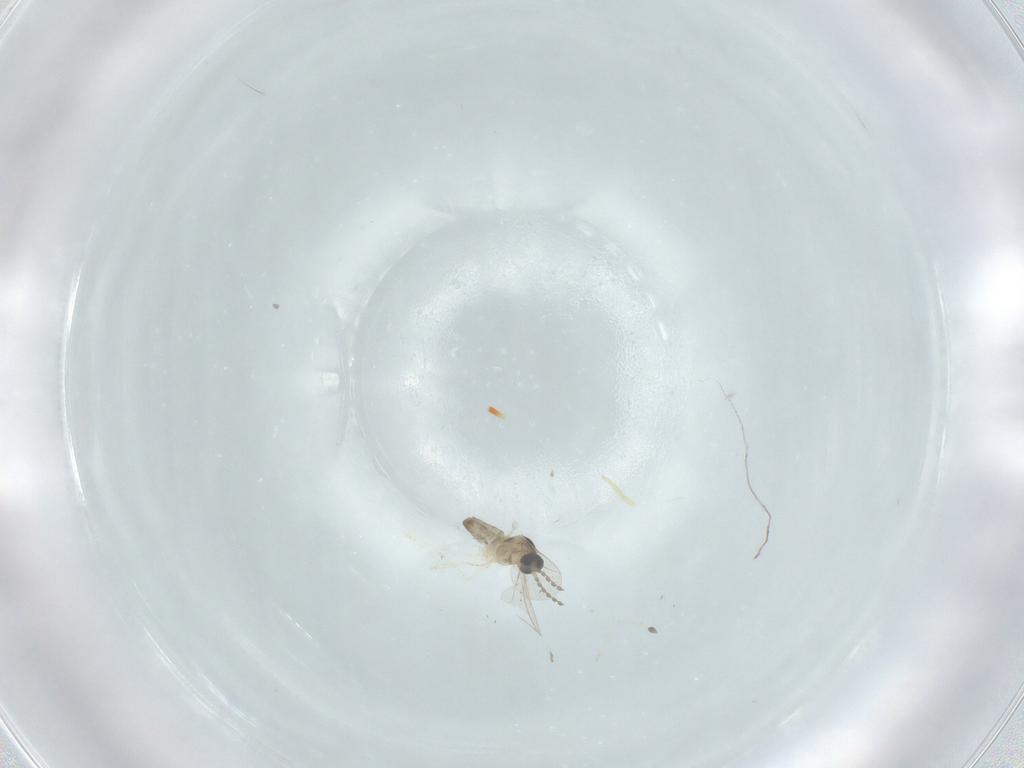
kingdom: Animalia
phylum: Arthropoda
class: Insecta
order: Diptera
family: Cecidomyiidae
